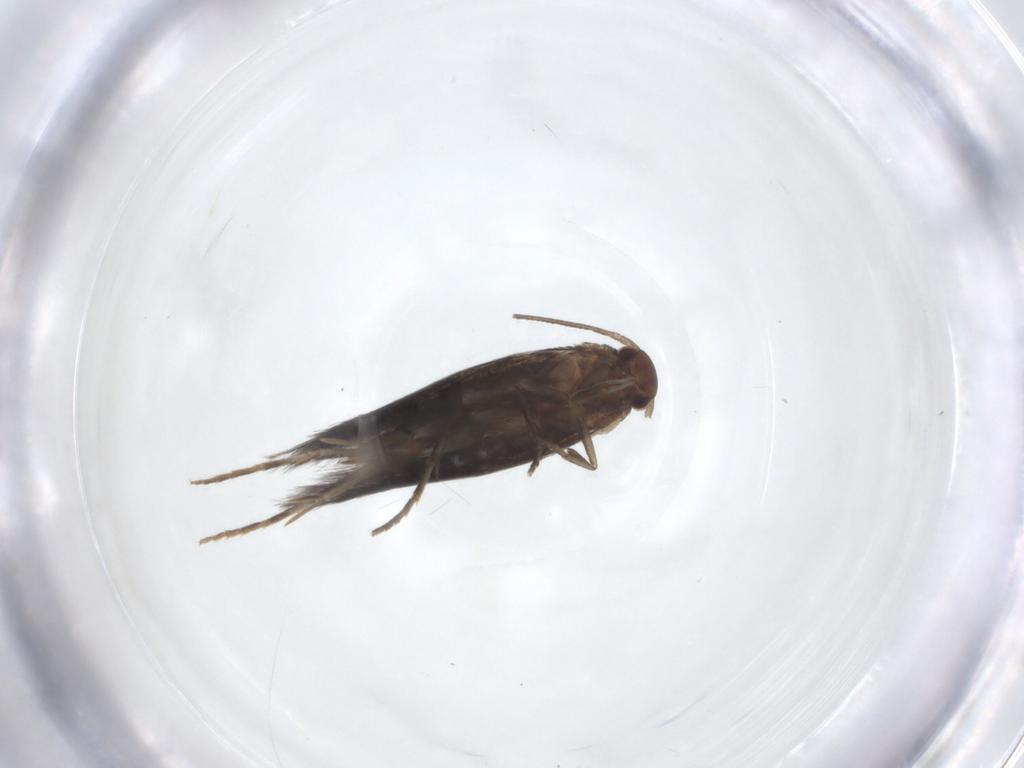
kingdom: Animalia
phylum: Arthropoda
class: Insecta
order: Lepidoptera
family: Elachistidae
